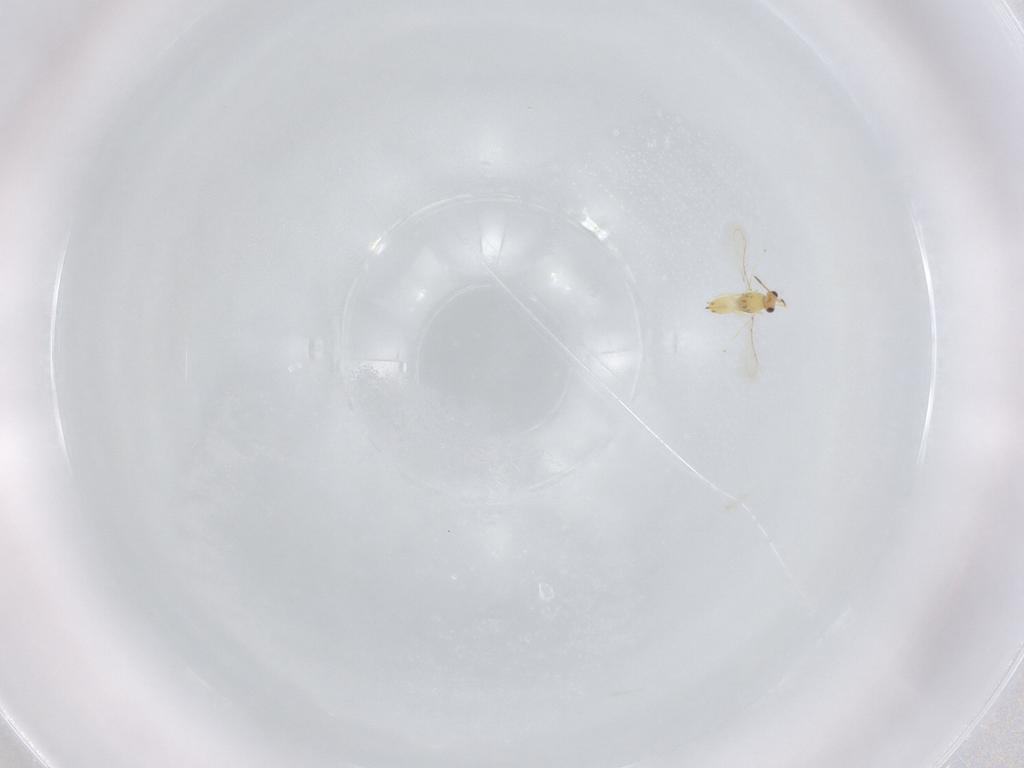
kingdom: Animalia
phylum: Arthropoda
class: Insecta
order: Hymenoptera
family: Mymaridae
